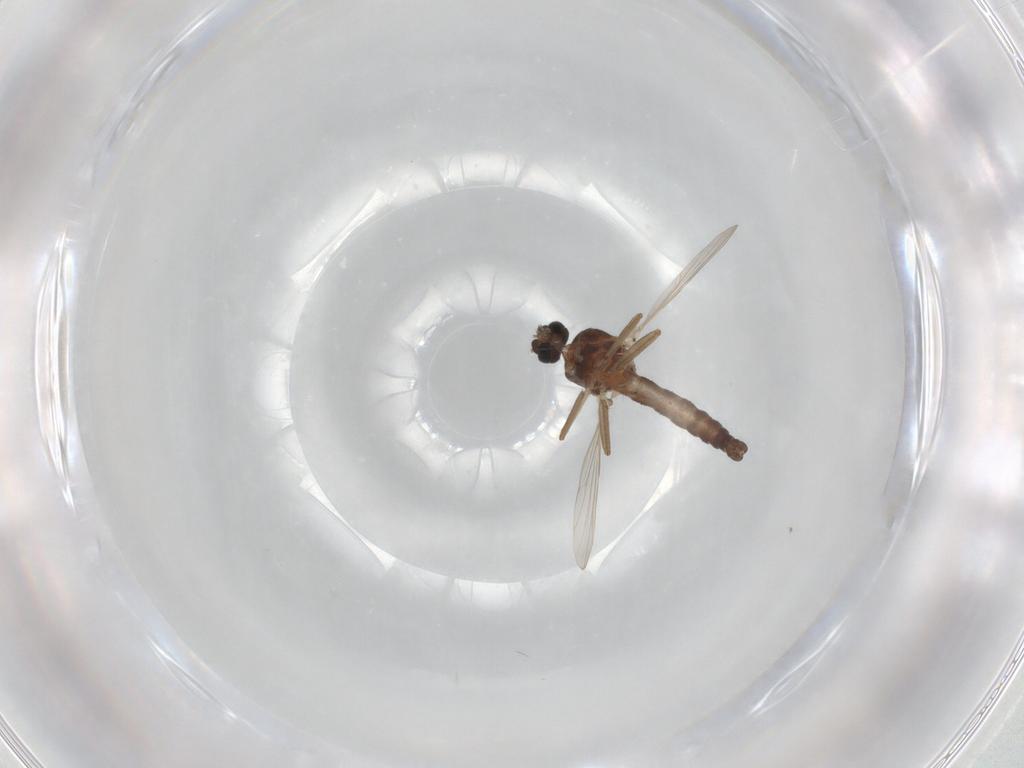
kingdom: Animalia
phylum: Arthropoda
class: Insecta
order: Diptera
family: Ceratopogonidae
